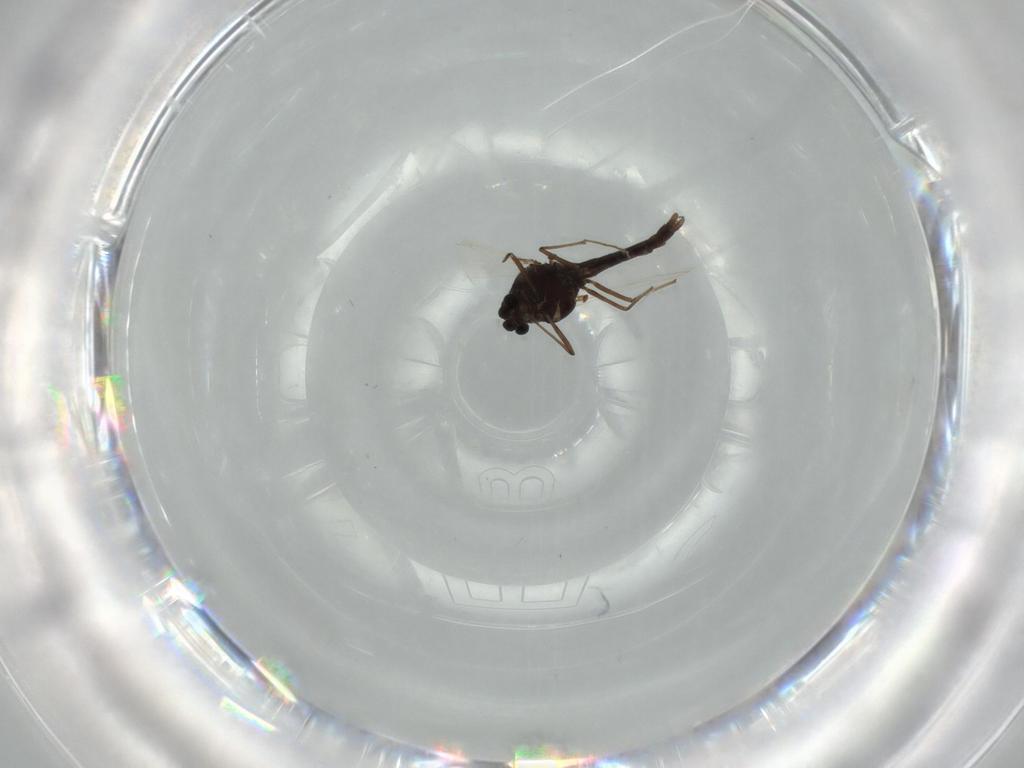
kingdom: Animalia
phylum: Arthropoda
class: Insecta
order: Diptera
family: Chironomidae
